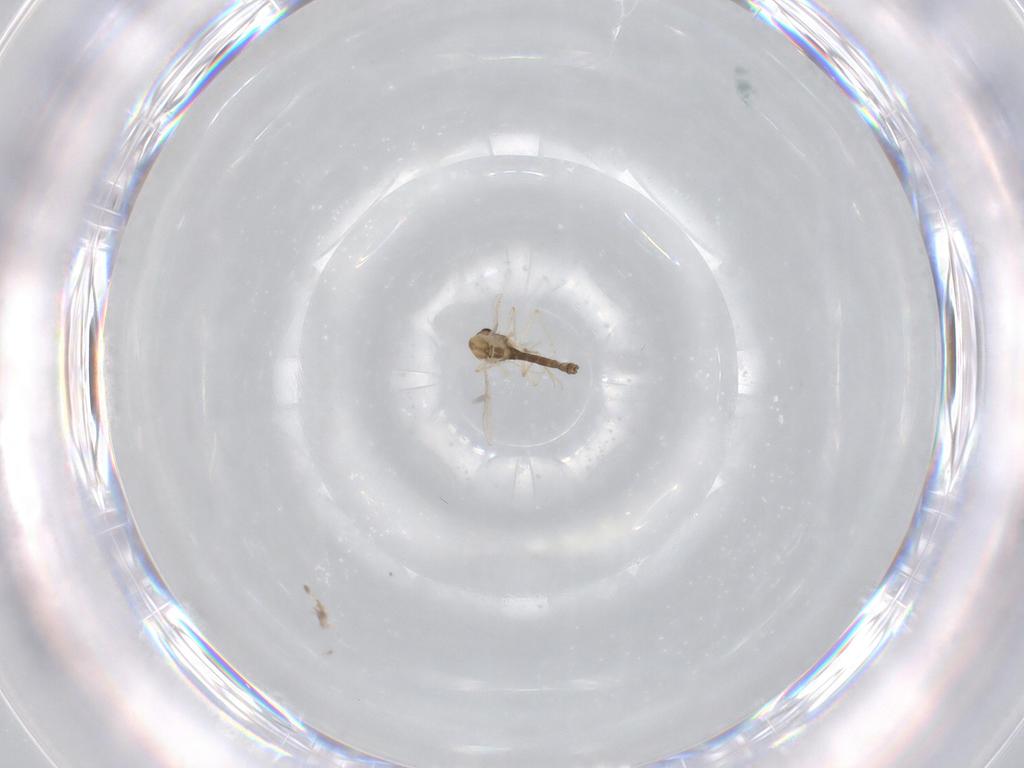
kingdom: Animalia
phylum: Arthropoda
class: Insecta
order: Diptera
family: Chironomidae
